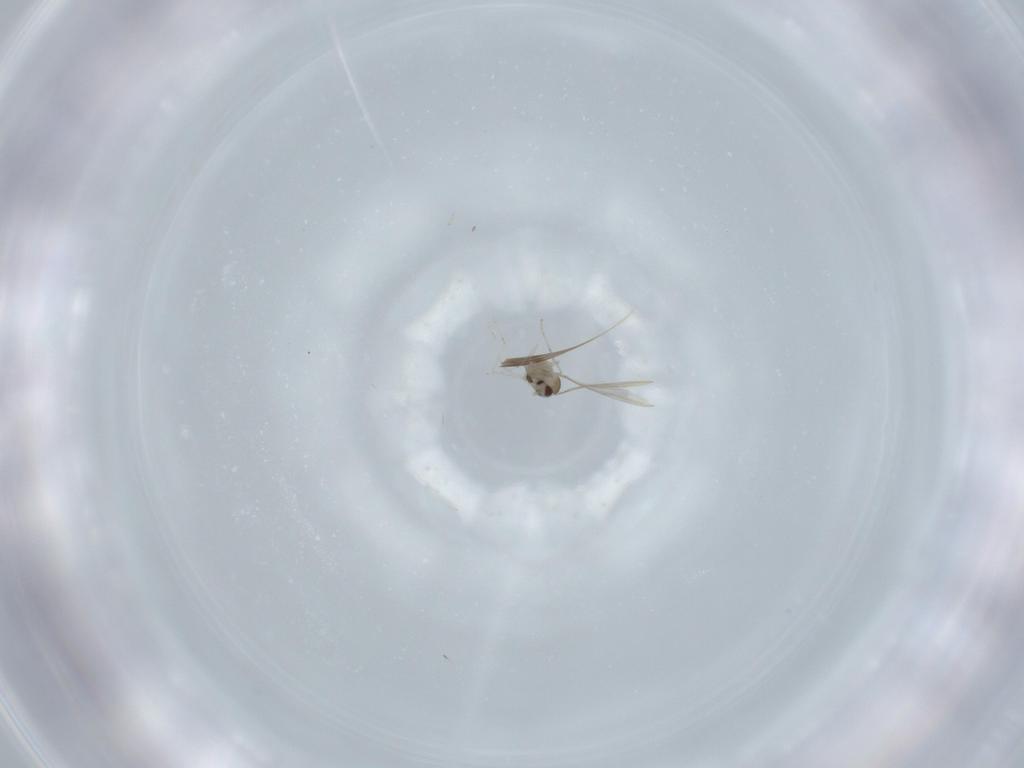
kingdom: Animalia
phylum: Arthropoda
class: Insecta
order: Diptera
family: Cecidomyiidae
